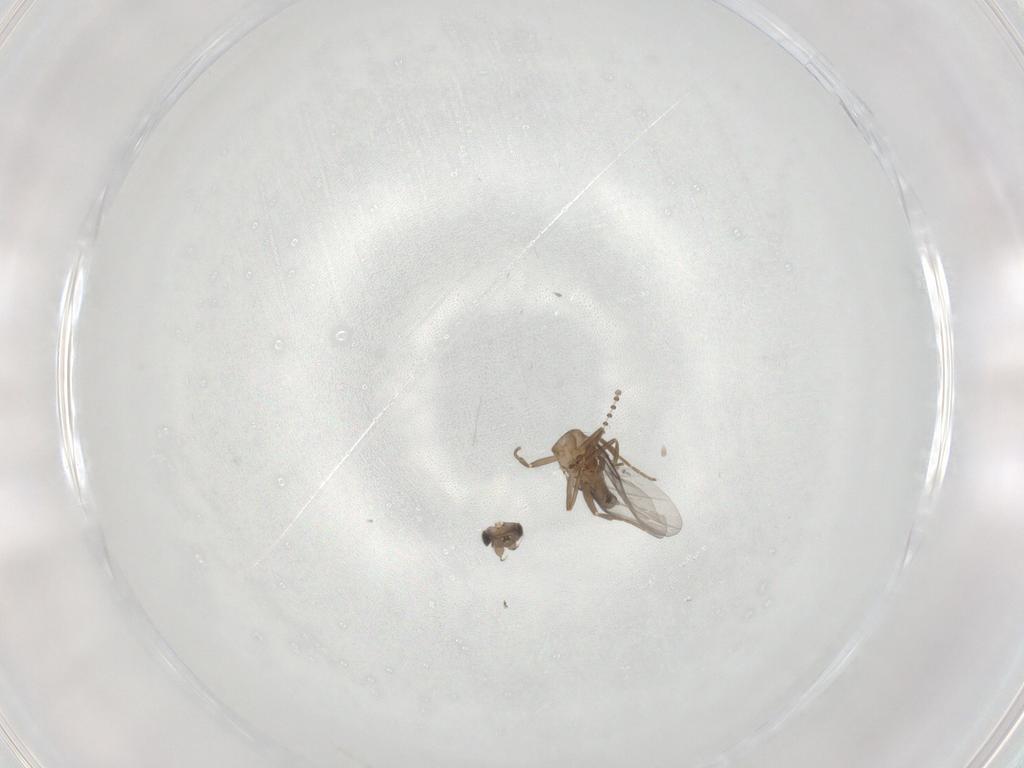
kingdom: Animalia
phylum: Arthropoda
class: Insecta
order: Diptera
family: Psychodidae
